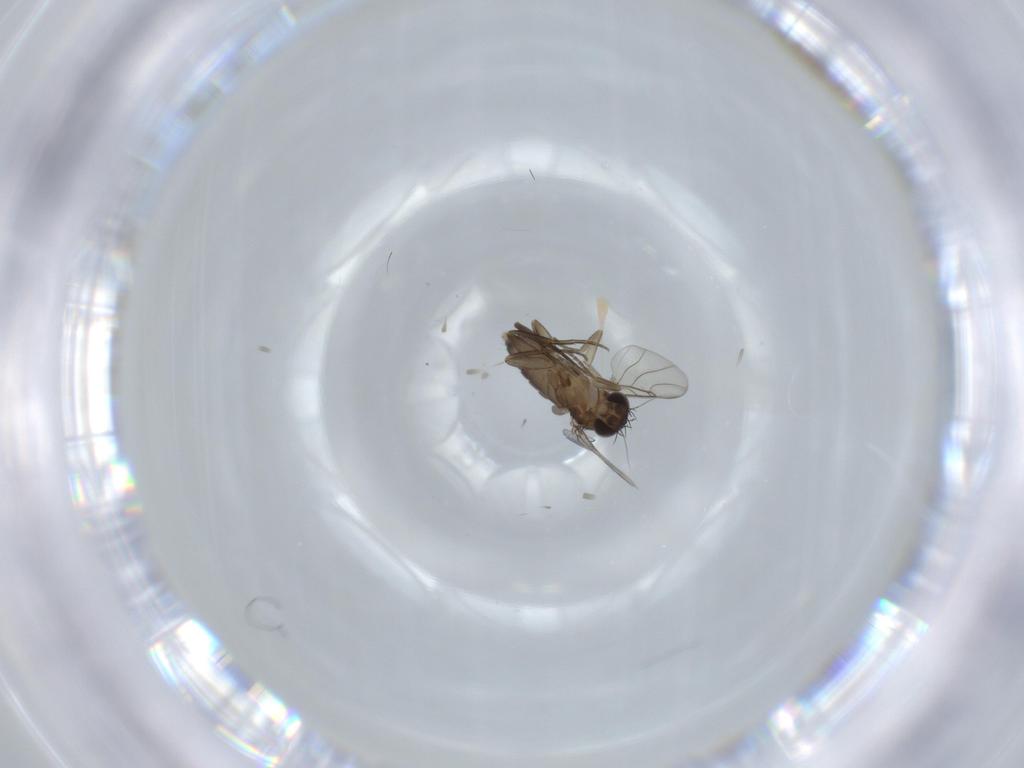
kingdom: Animalia
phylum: Arthropoda
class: Insecta
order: Diptera
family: Phoridae
